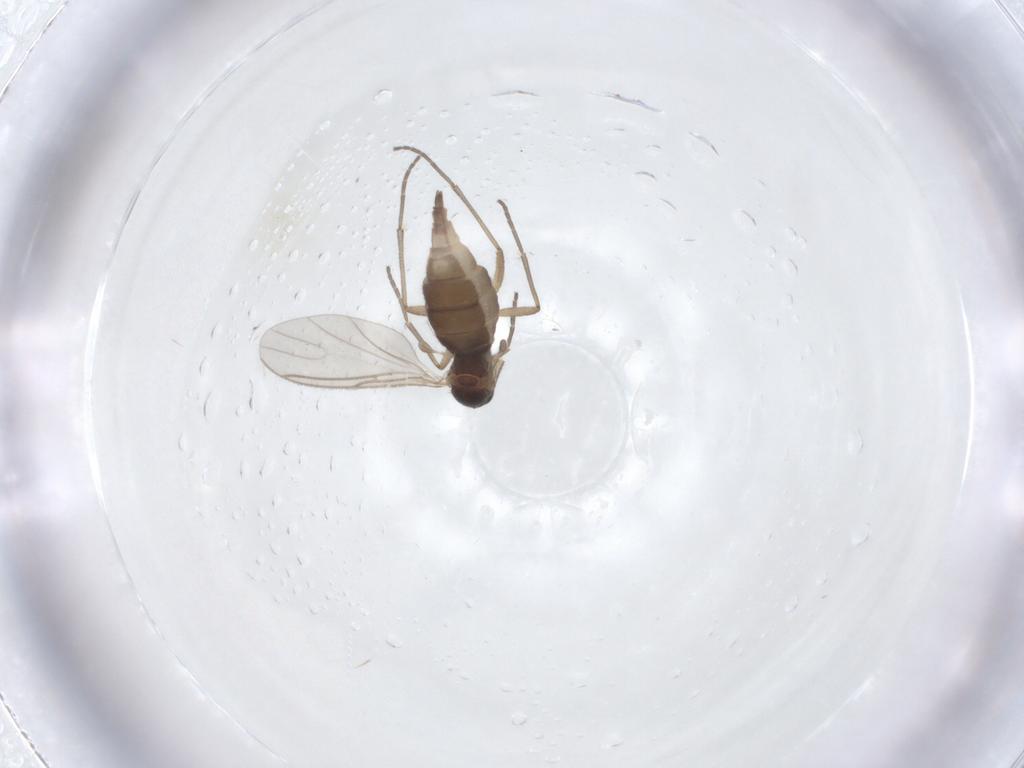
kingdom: Animalia
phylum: Arthropoda
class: Insecta
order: Diptera
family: Sciaridae
